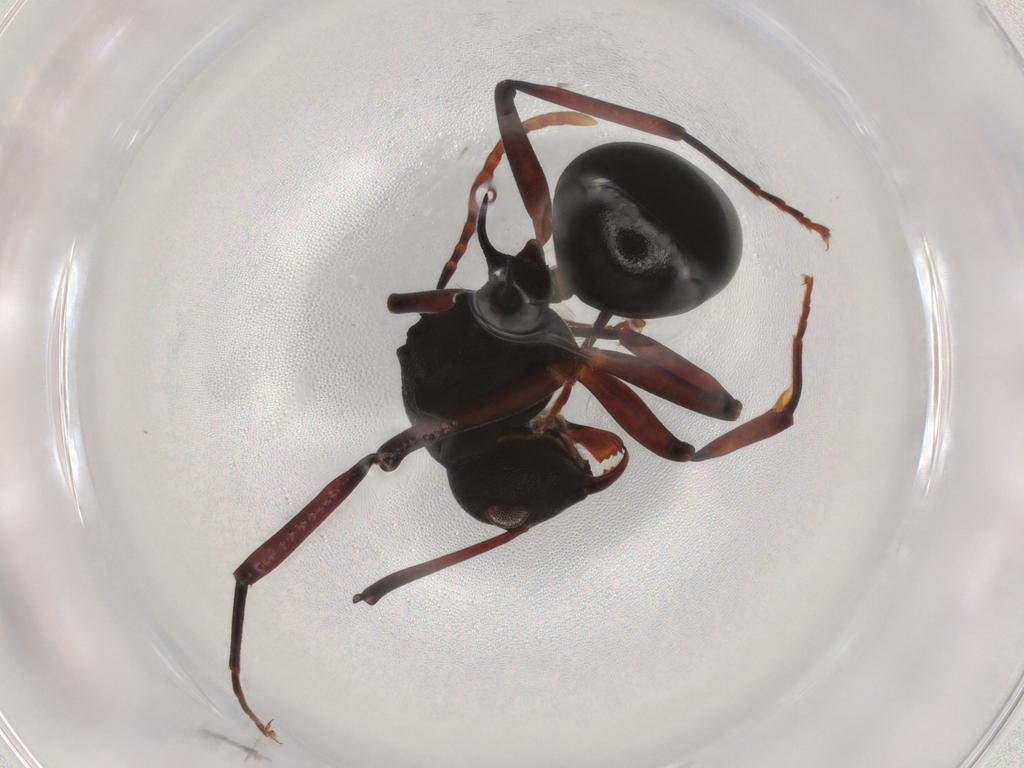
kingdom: Animalia
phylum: Arthropoda
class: Insecta
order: Hymenoptera
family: Formicidae
